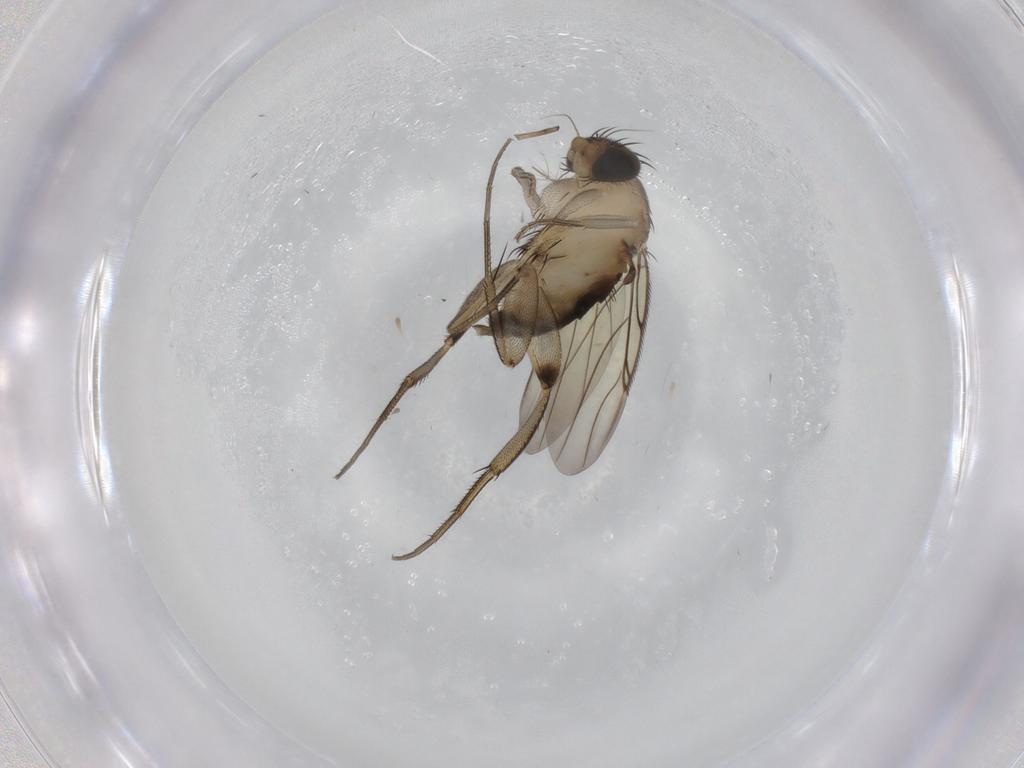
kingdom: Animalia
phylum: Arthropoda
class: Insecta
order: Diptera
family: Phoridae
